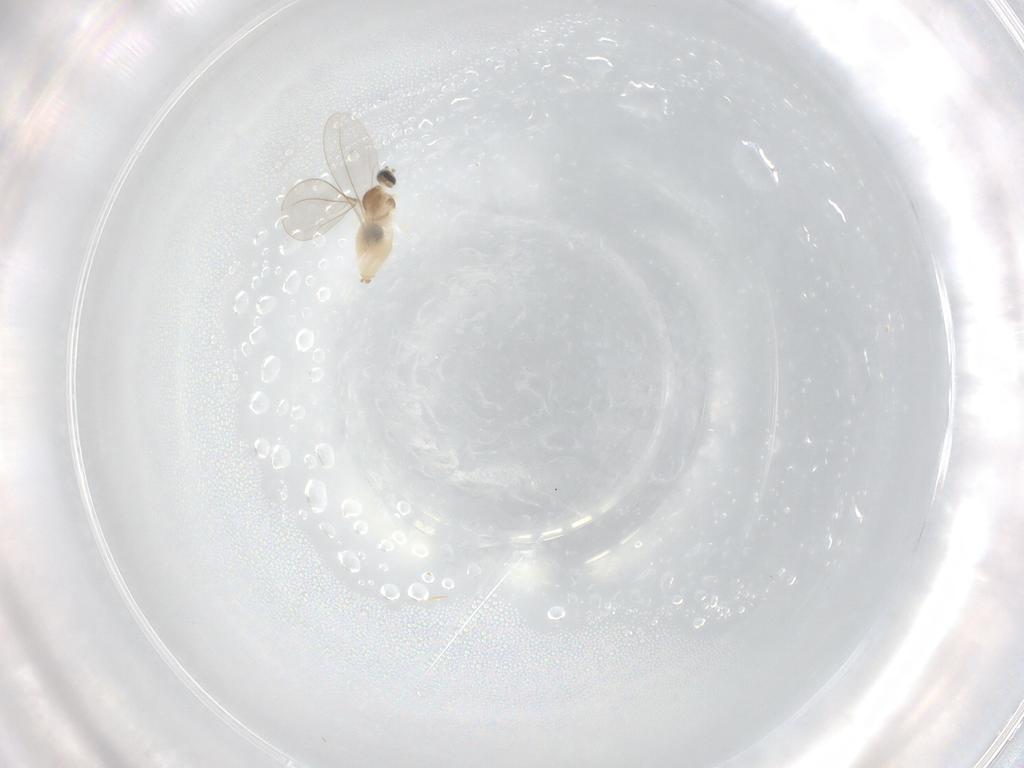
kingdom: Animalia
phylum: Arthropoda
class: Insecta
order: Diptera
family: Cecidomyiidae
